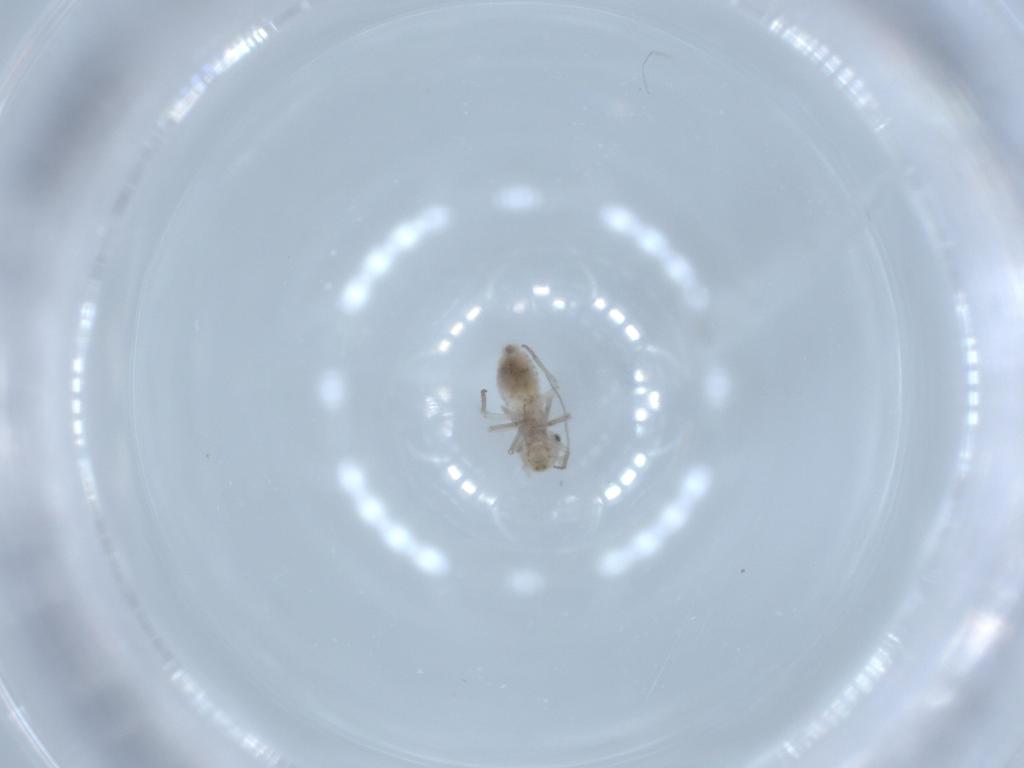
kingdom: Animalia
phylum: Arthropoda
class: Insecta
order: Psocodea
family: Lachesillidae
